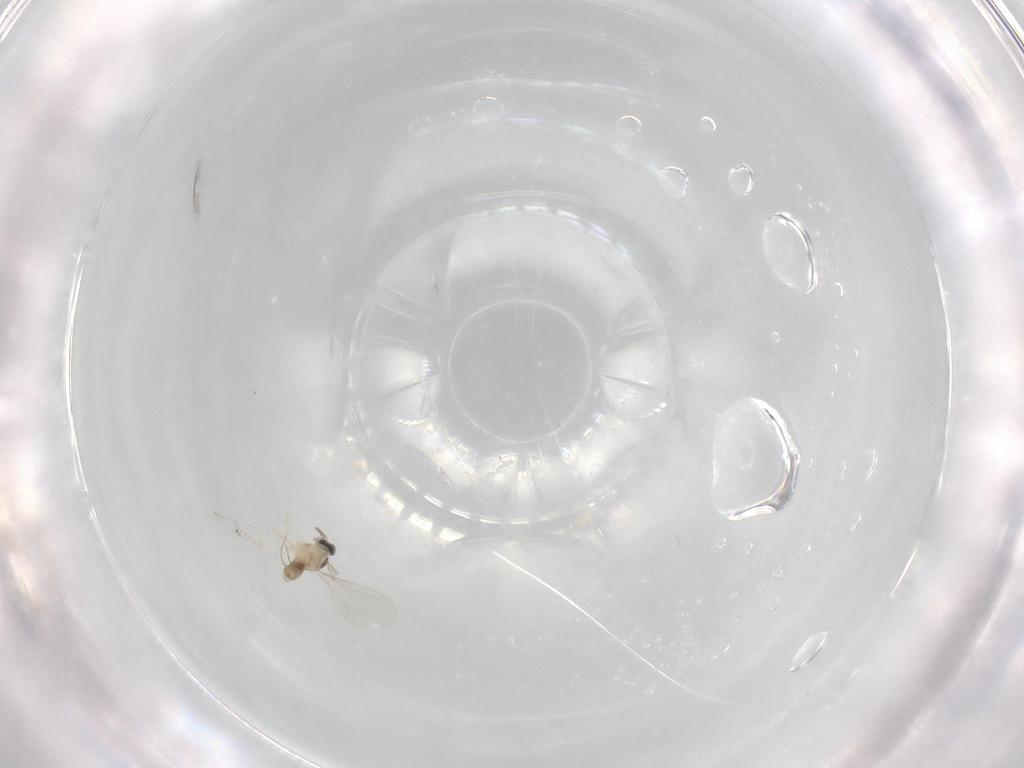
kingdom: Animalia
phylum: Arthropoda
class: Insecta
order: Diptera
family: Cecidomyiidae
